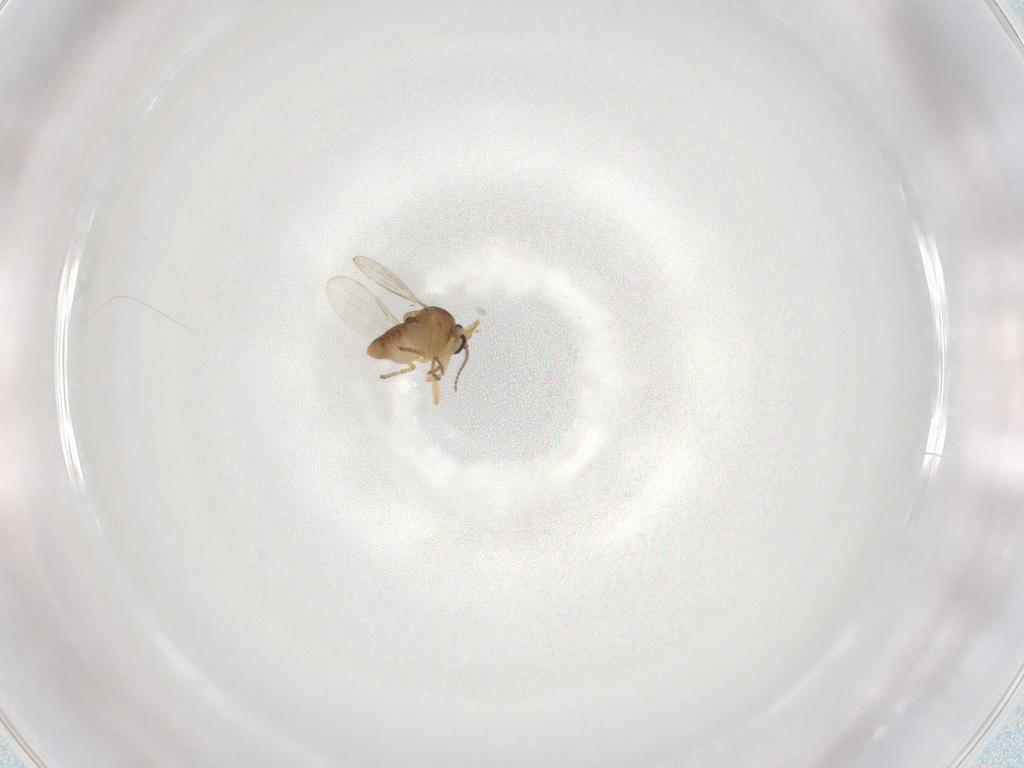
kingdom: Animalia
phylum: Arthropoda
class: Insecta
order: Diptera
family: Ceratopogonidae
